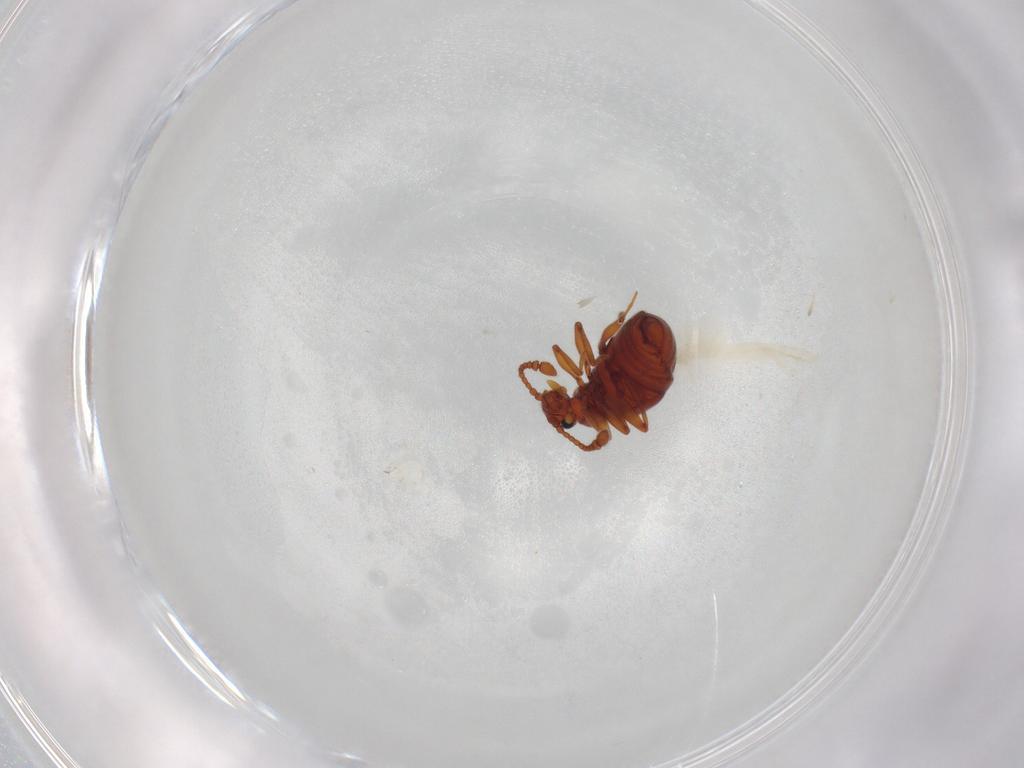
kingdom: Animalia
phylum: Arthropoda
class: Insecta
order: Coleoptera
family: Staphylinidae
